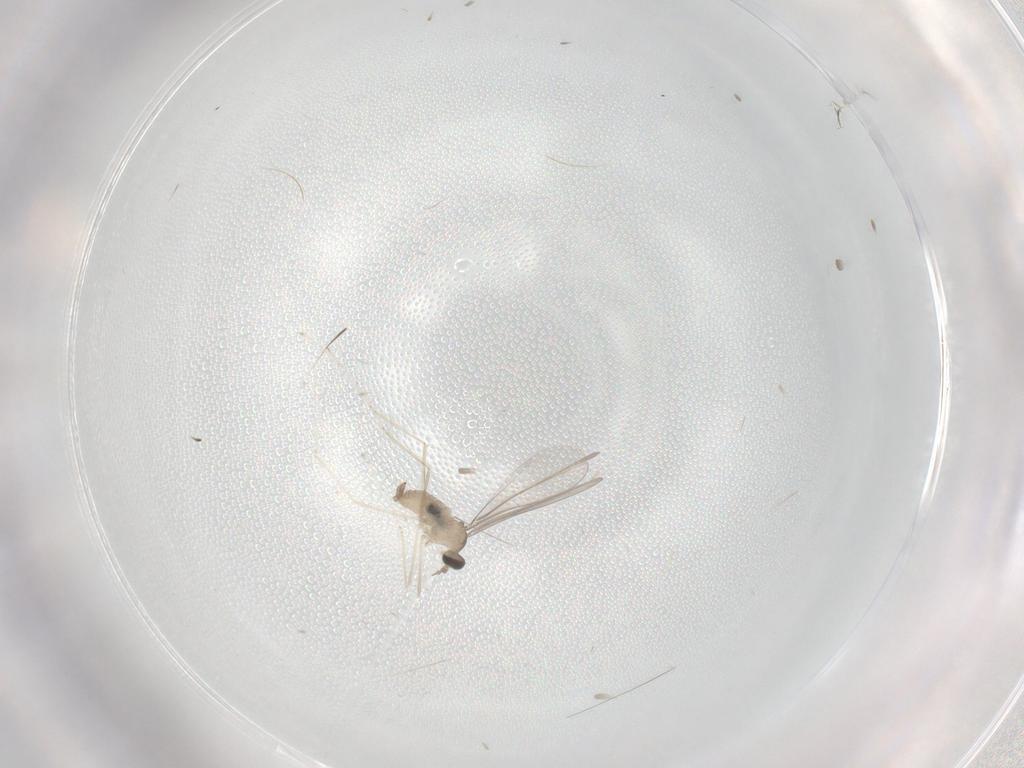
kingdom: Animalia
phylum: Arthropoda
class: Insecta
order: Diptera
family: Cecidomyiidae
